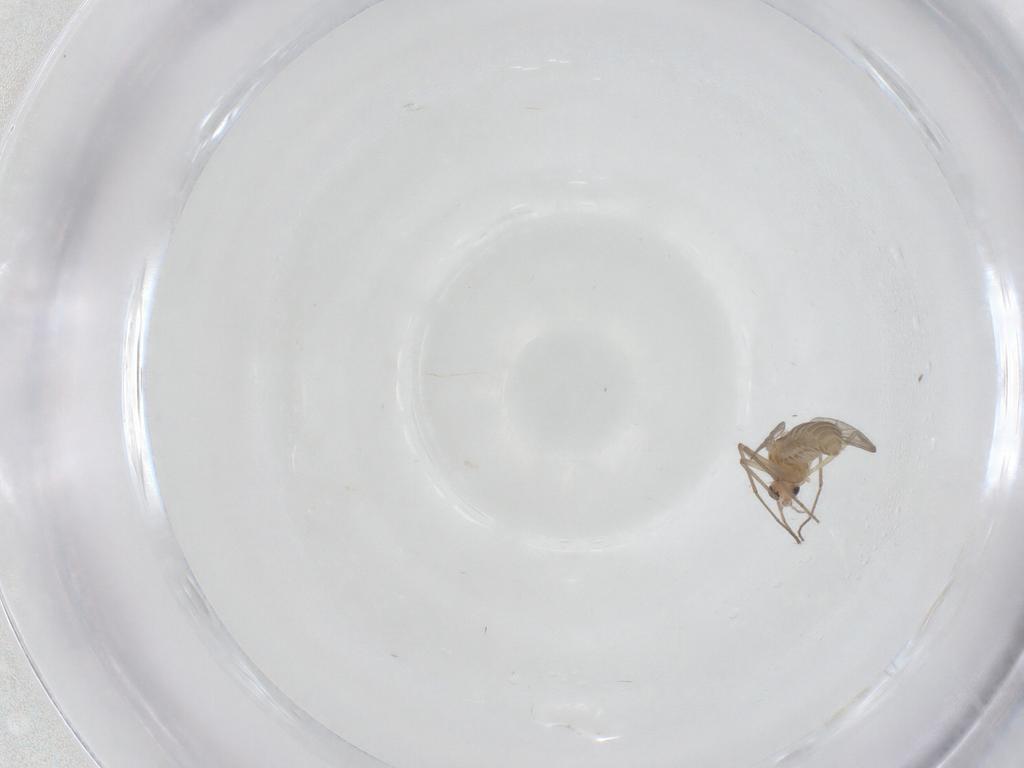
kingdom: Animalia
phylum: Arthropoda
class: Insecta
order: Diptera
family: Chironomidae
